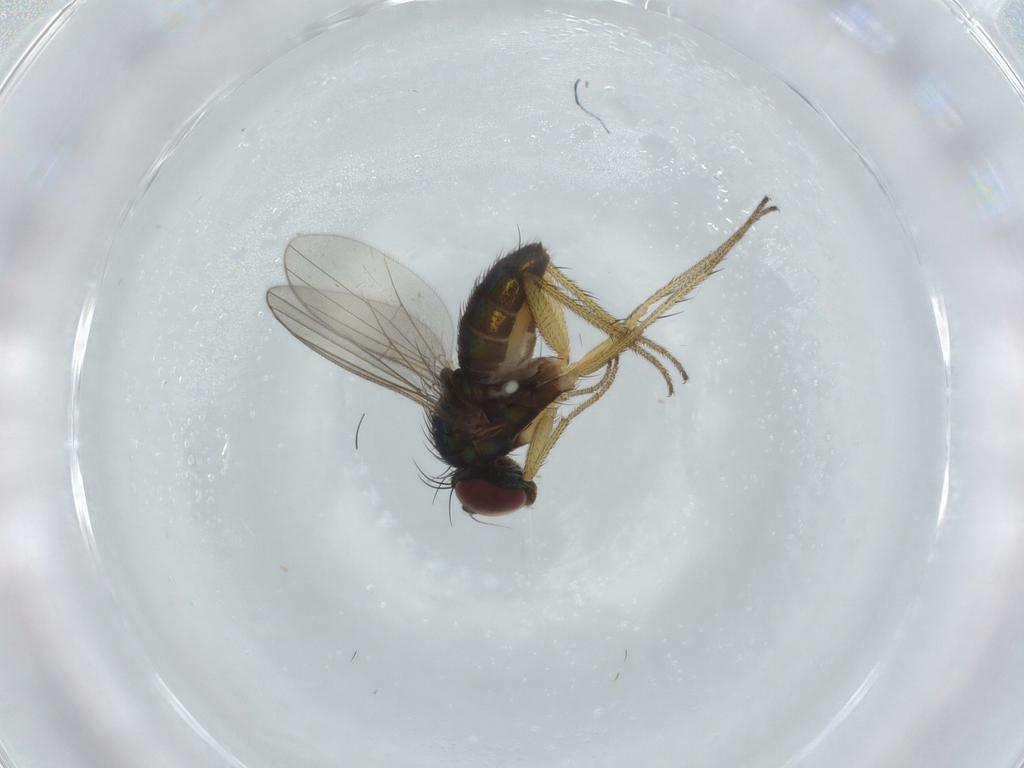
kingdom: Animalia
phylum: Arthropoda
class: Insecta
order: Diptera
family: Dolichopodidae
